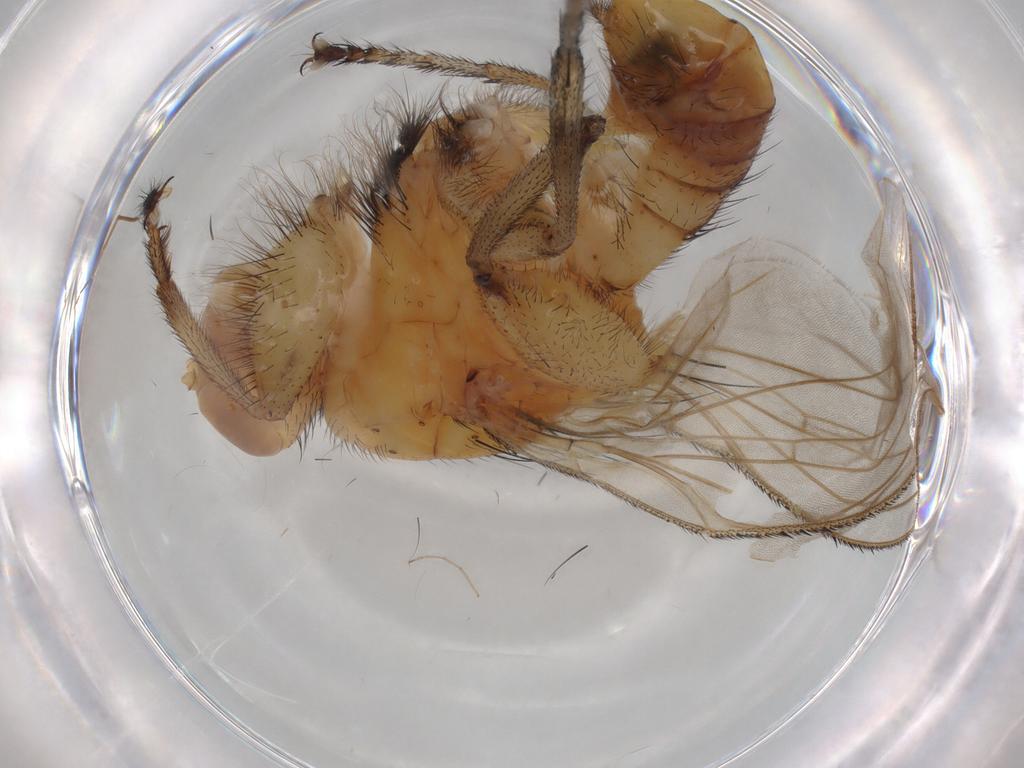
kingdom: Animalia
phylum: Arthropoda
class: Insecta
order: Diptera
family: Heleomyzidae
